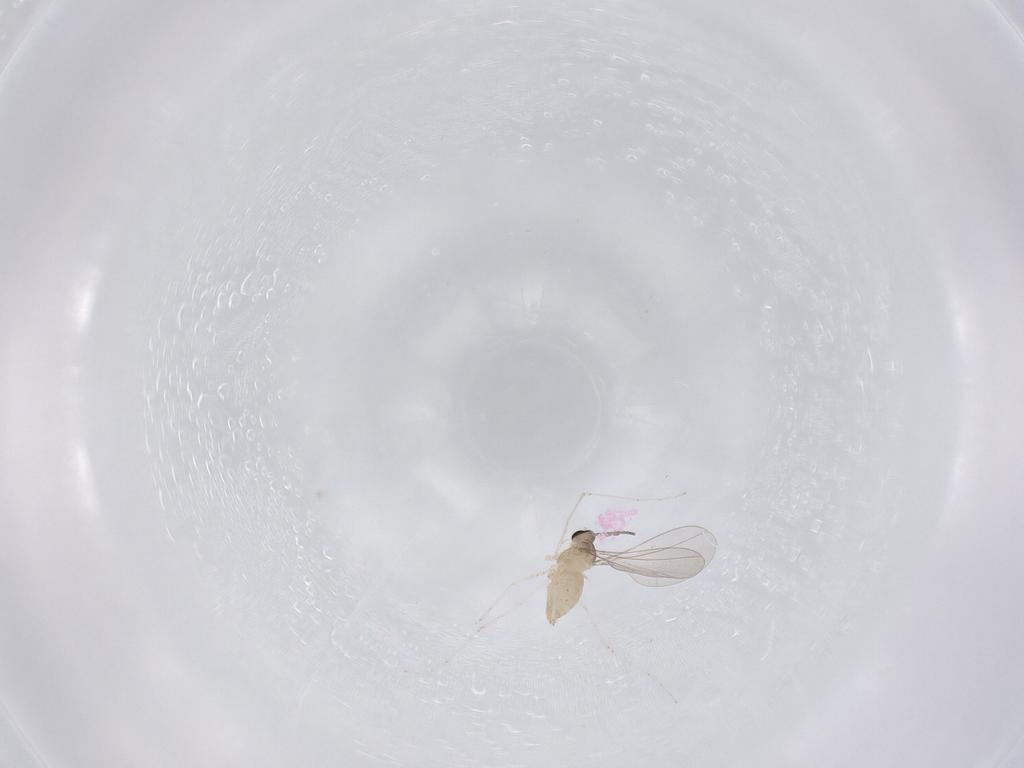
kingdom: Animalia
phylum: Arthropoda
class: Insecta
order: Diptera
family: Cecidomyiidae
